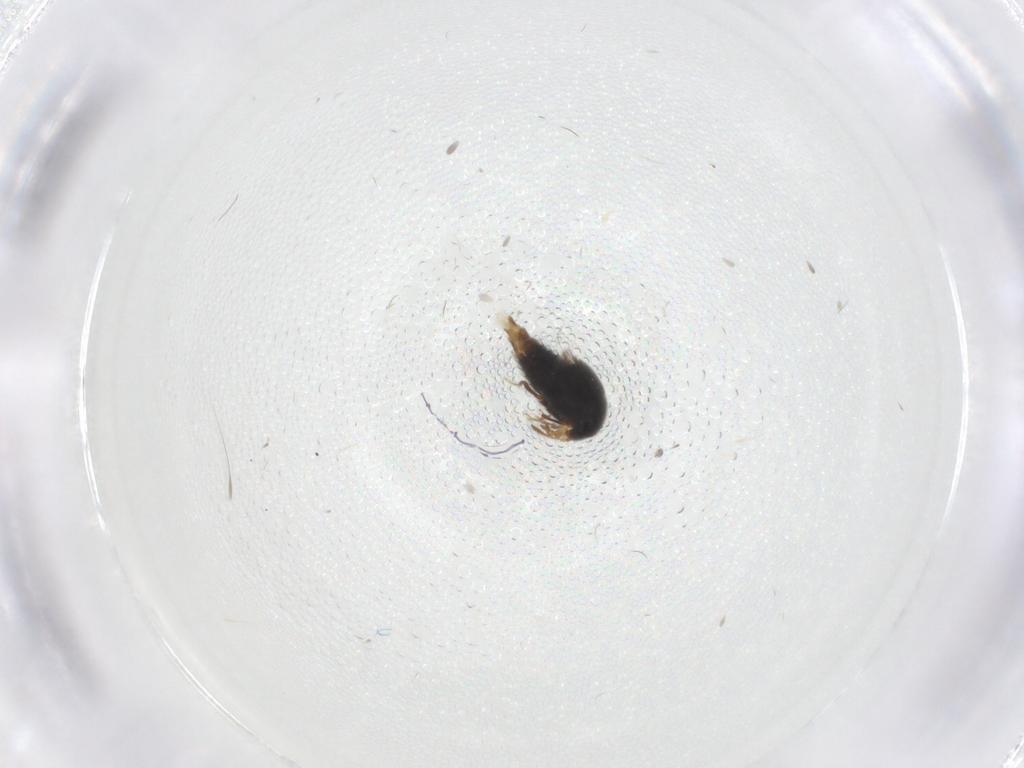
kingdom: Animalia
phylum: Arthropoda
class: Insecta
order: Coleoptera
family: Staphylinidae
